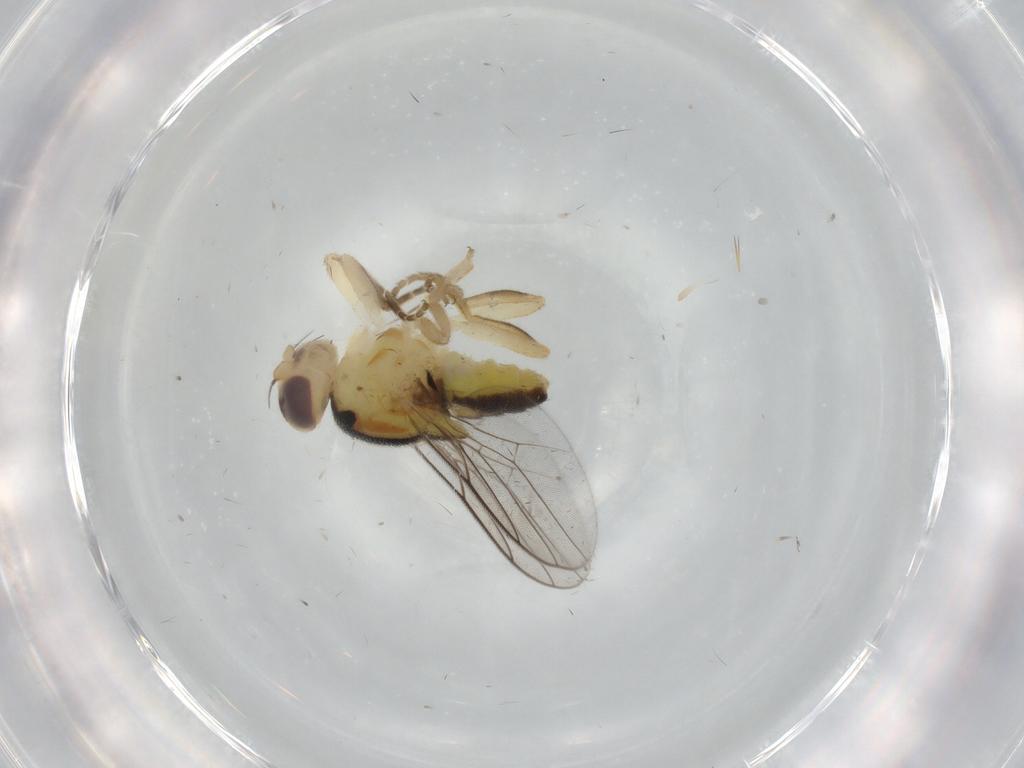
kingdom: Animalia
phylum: Arthropoda
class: Insecta
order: Diptera
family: Chloropidae
